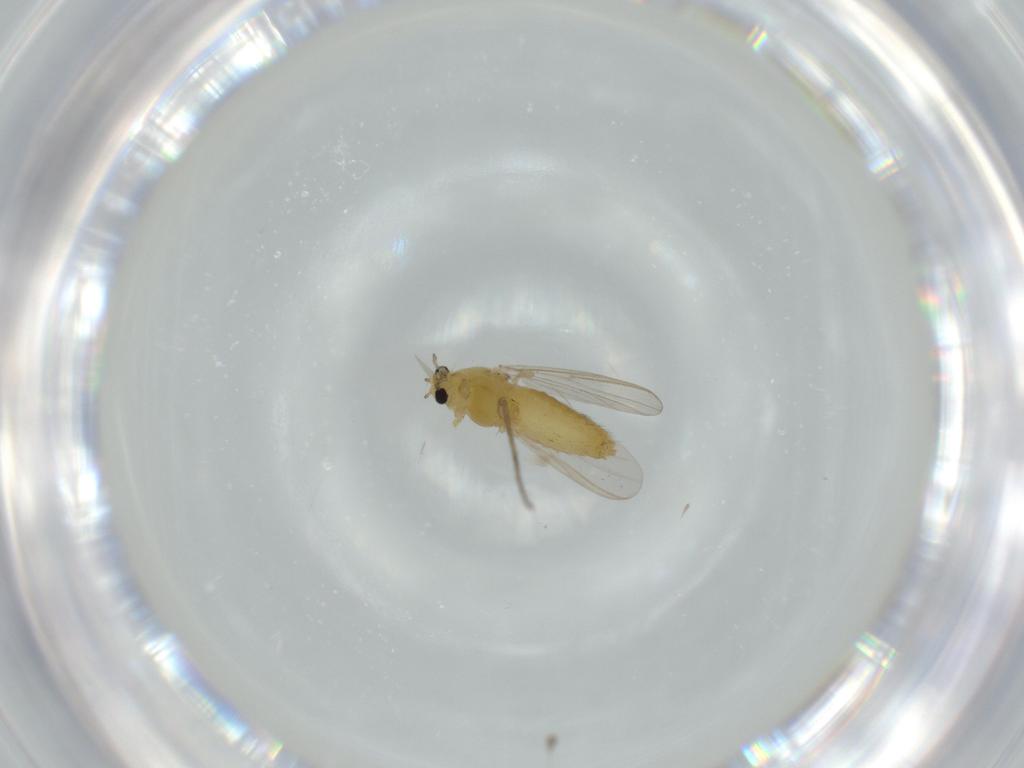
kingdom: Animalia
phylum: Arthropoda
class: Insecta
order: Diptera
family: Chironomidae
